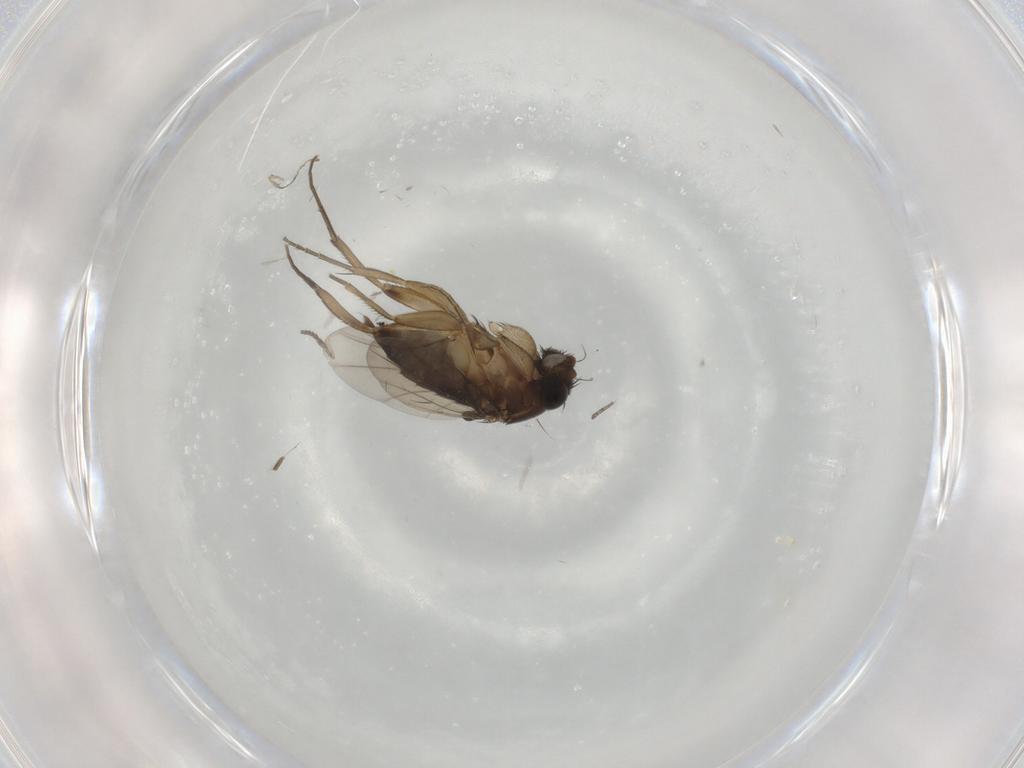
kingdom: Animalia
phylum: Arthropoda
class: Insecta
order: Diptera
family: Phoridae
